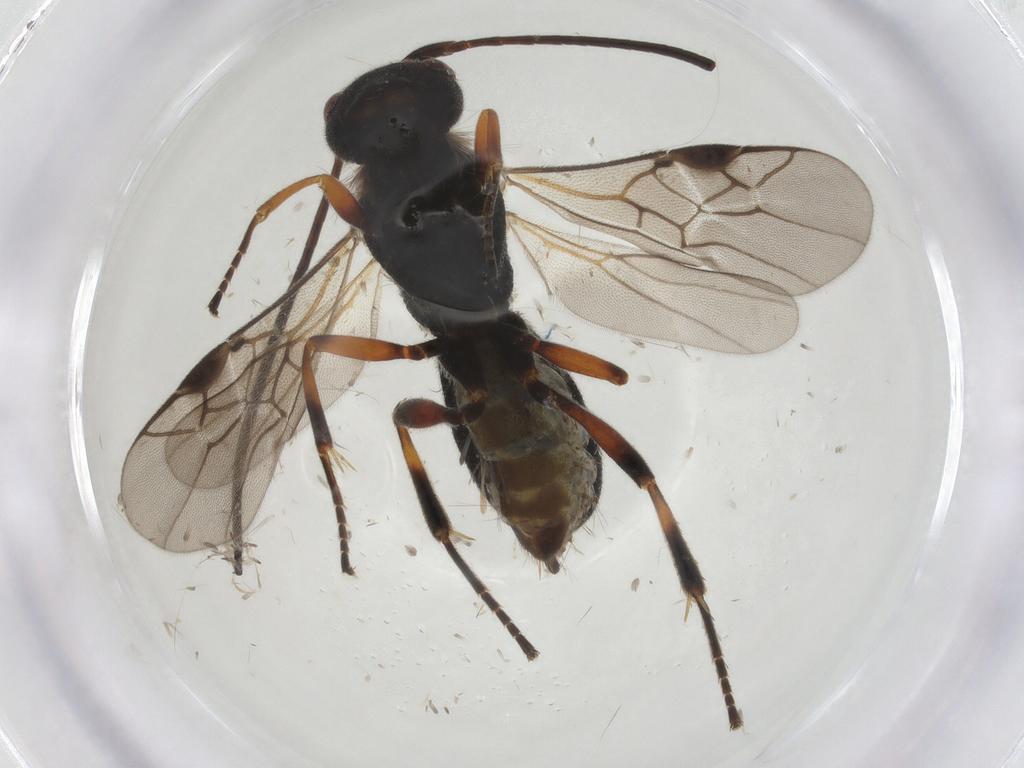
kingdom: Animalia
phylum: Arthropoda
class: Insecta
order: Hymenoptera
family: Braconidae
